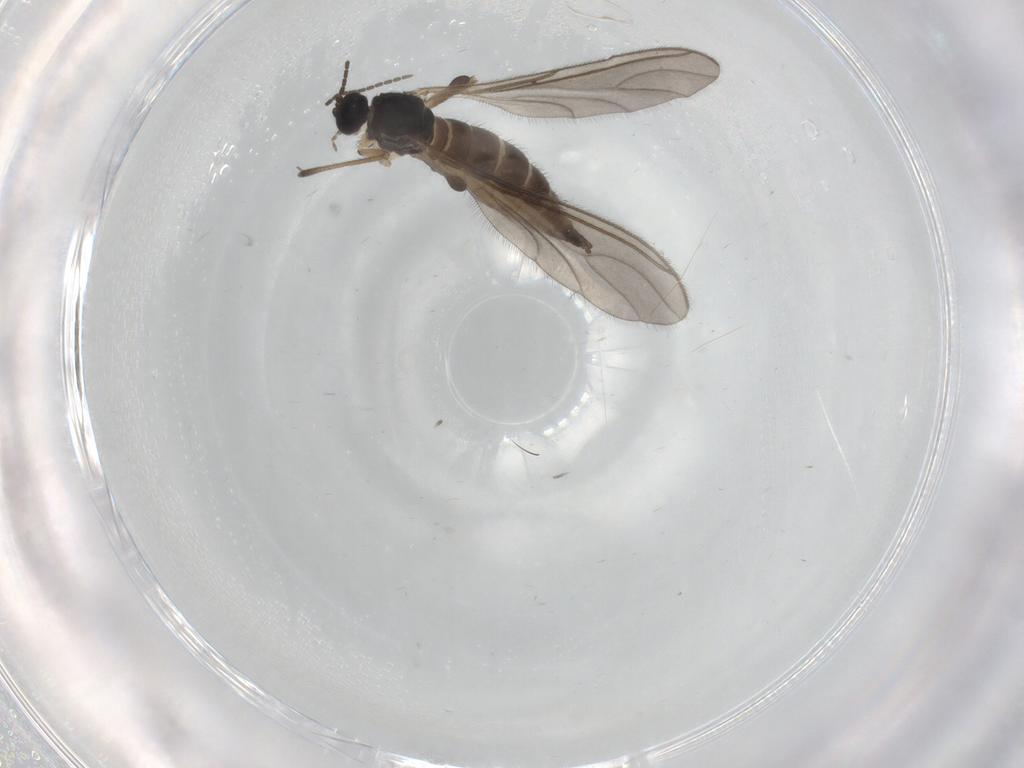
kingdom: Animalia
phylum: Arthropoda
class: Insecta
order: Diptera
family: Sciaridae
